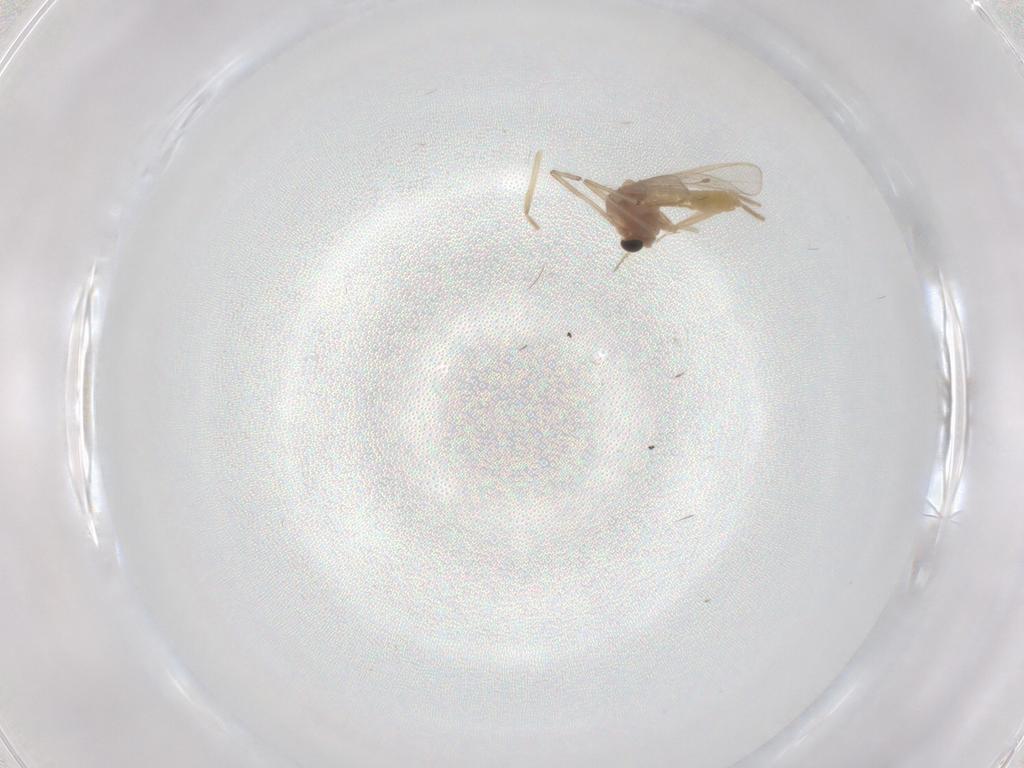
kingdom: Animalia
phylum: Arthropoda
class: Insecta
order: Diptera
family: Chironomidae
